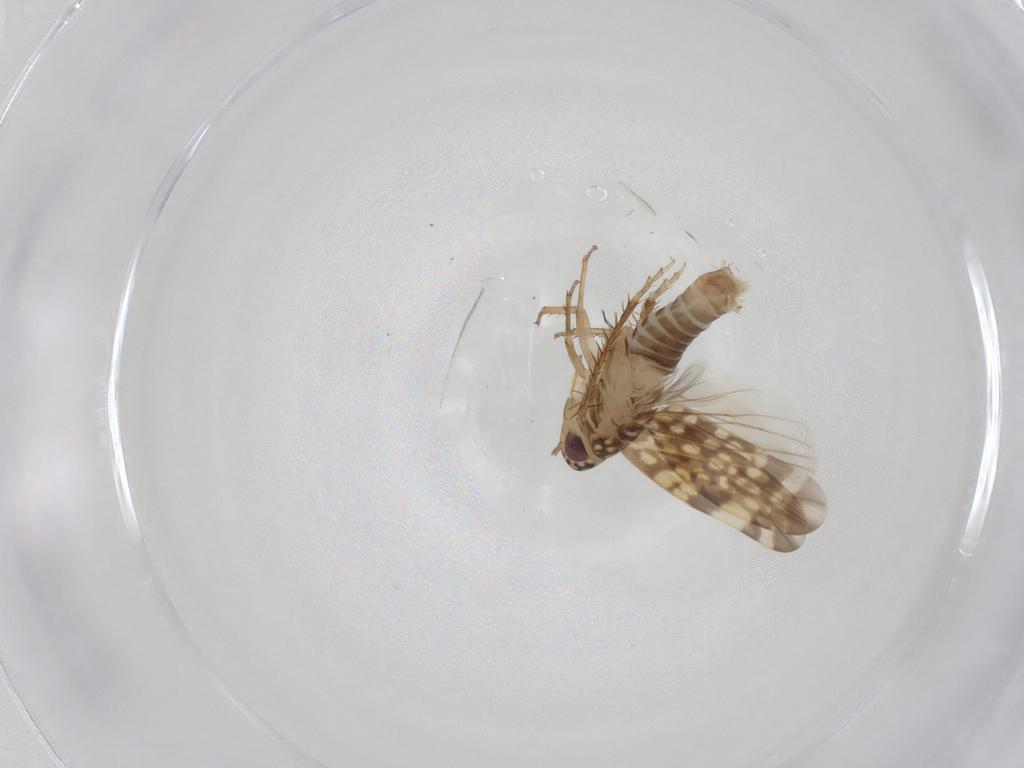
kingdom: Animalia
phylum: Arthropoda
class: Insecta
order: Hemiptera
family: Cicadellidae
